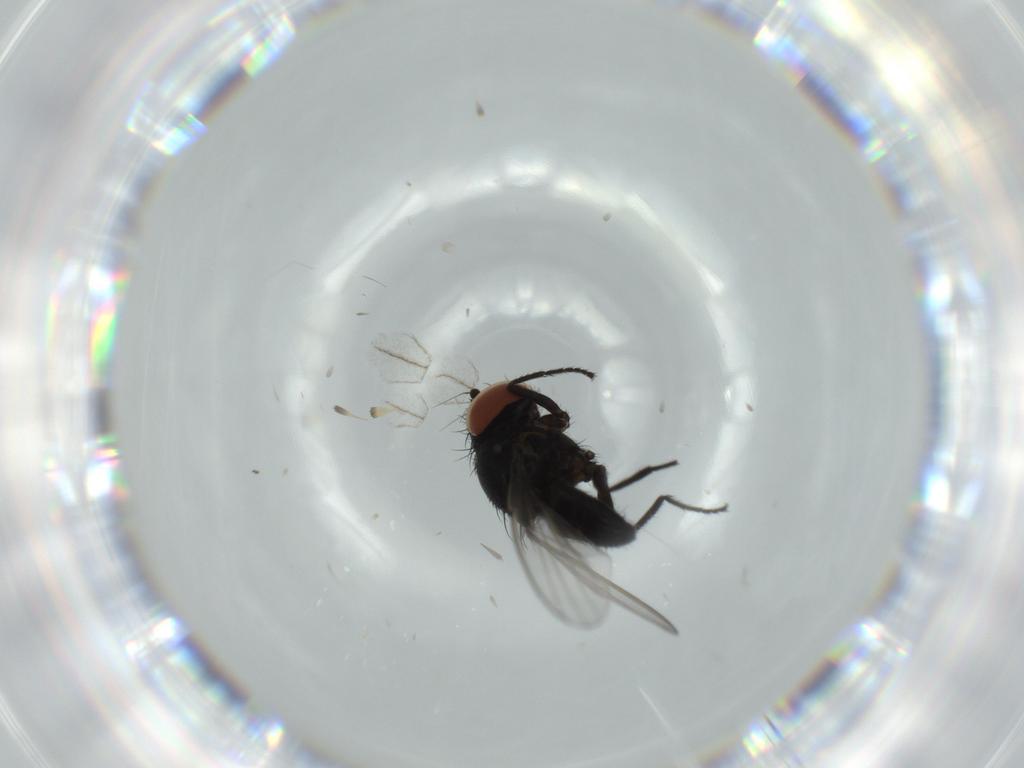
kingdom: Animalia
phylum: Arthropoda
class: Insecta
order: Diptera
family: Milichiidae
